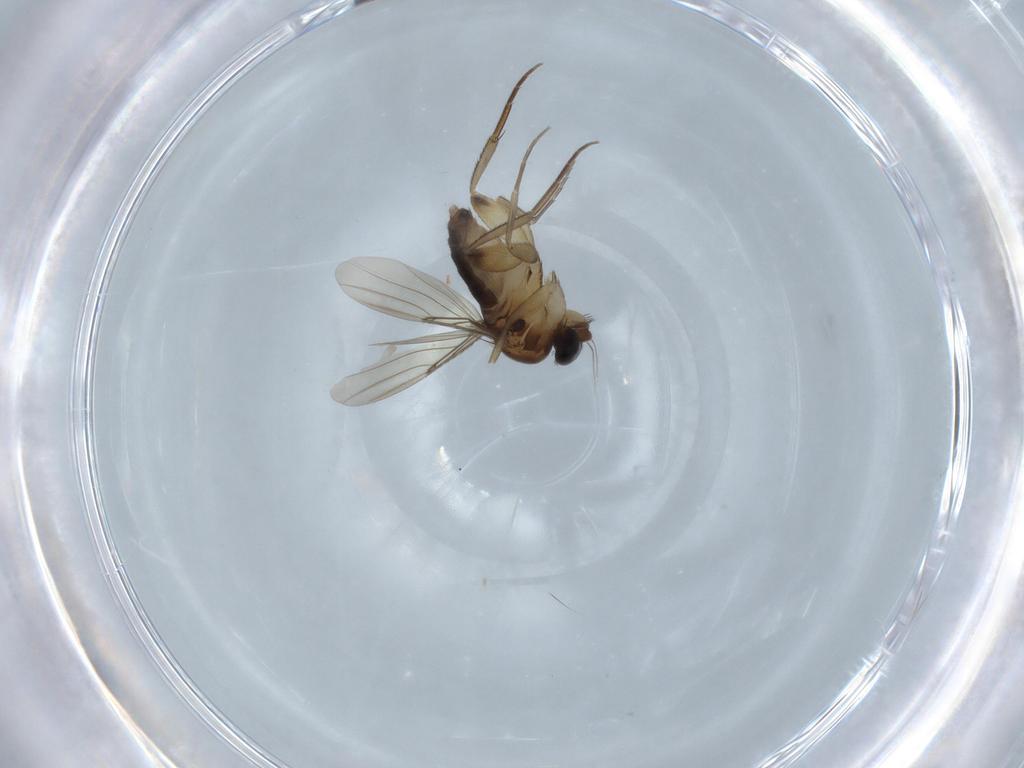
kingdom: Animalia
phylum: Arthropoda
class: Insecta
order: Diptera
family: Phoridae
